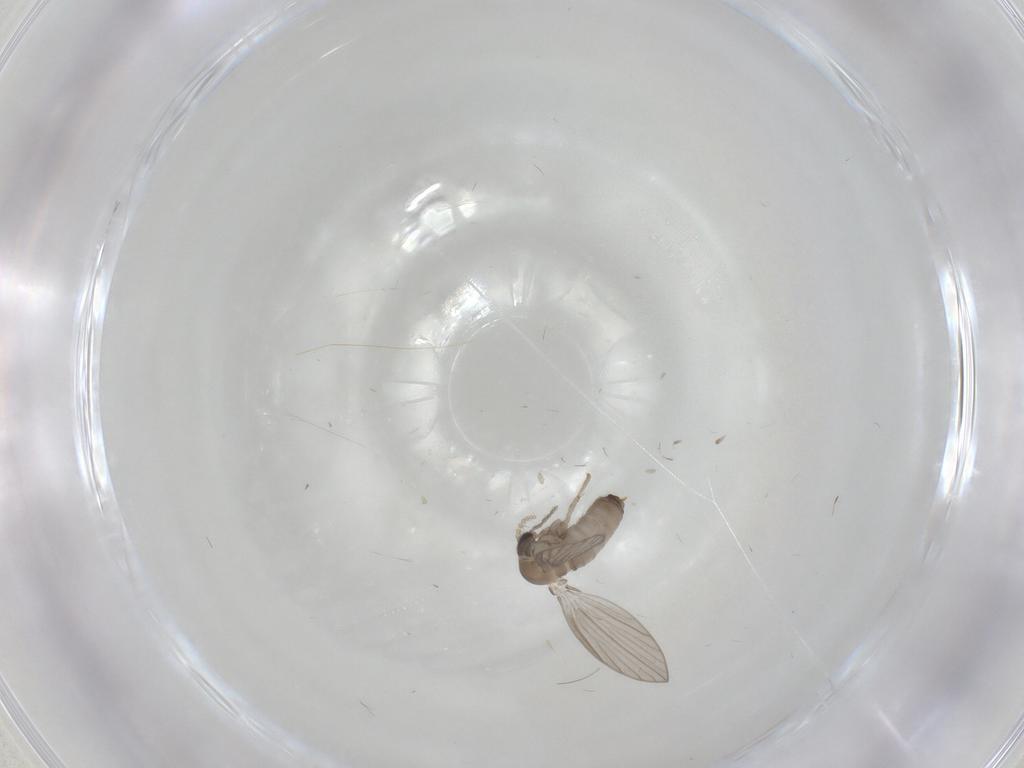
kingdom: Animalia
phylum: Arthropoda
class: Insecta
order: Diptera
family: Psychodidae
